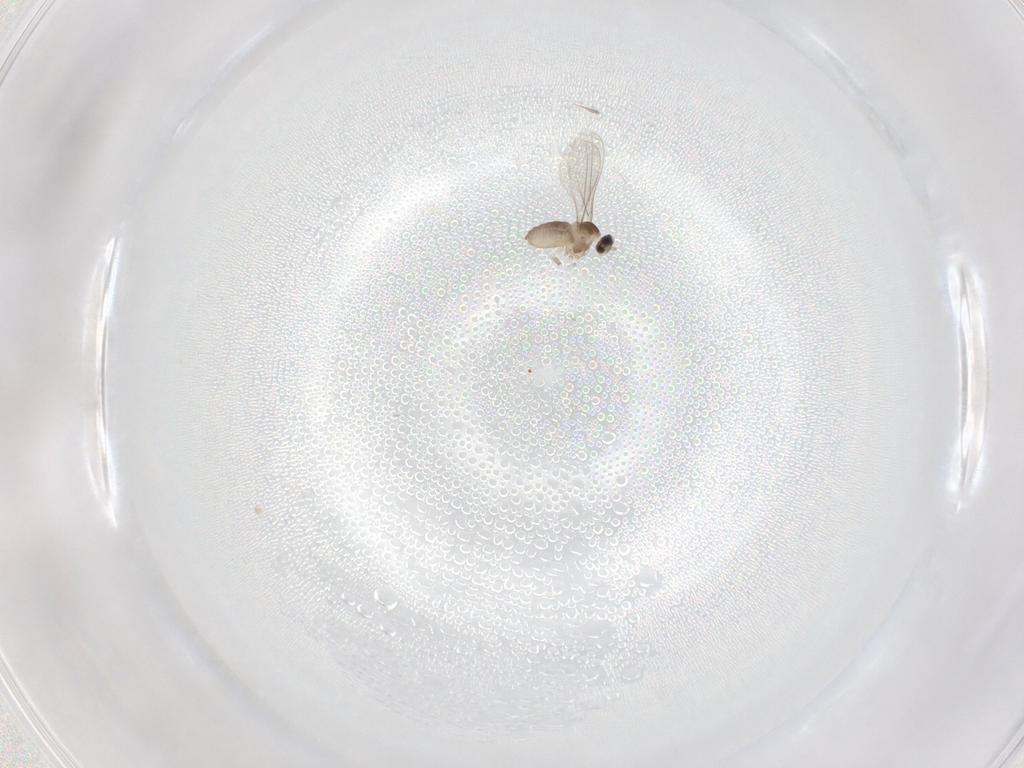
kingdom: Animalia
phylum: Arthropoda
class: Insecta
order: Diptera
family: Cecidomyiidae
